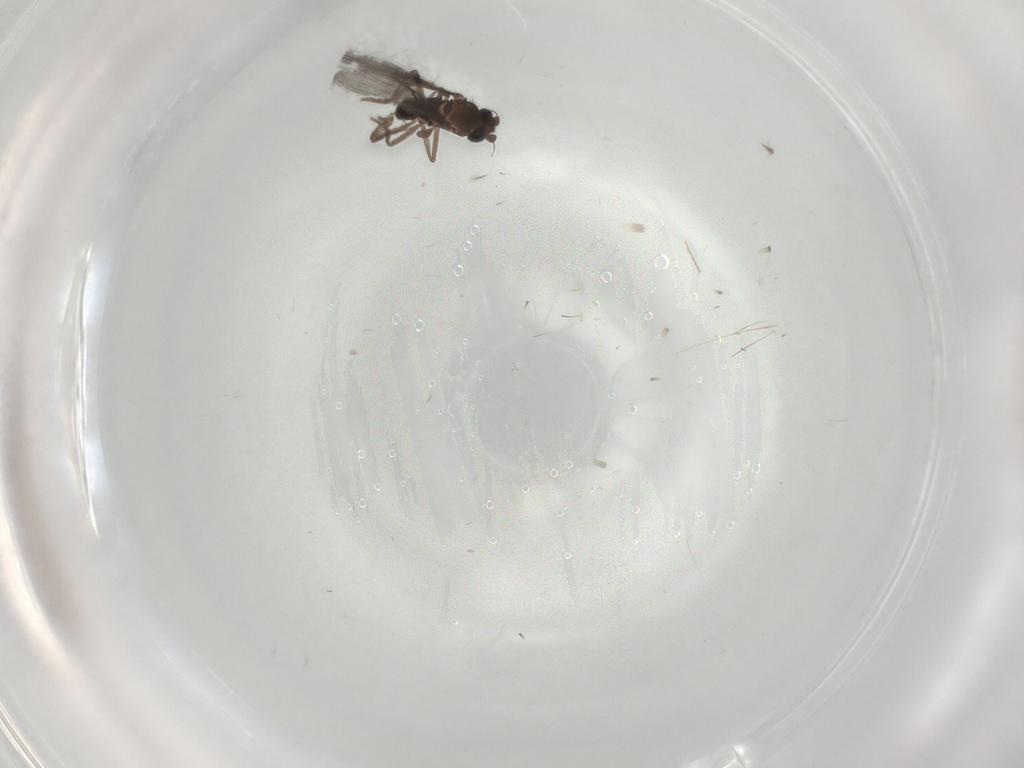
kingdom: Animalia
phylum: Arthropoda
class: Insecta
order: Diptera
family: Phoridae
